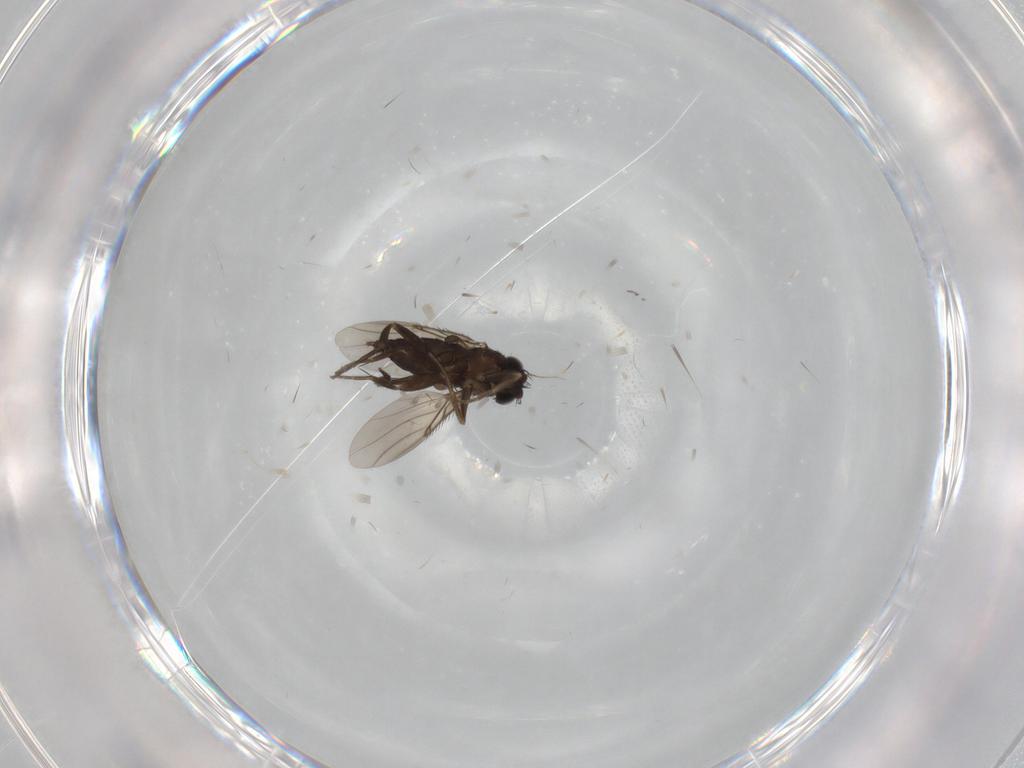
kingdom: Animalia
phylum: Arthropoda
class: Insecta
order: Diptera
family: Phoridae
